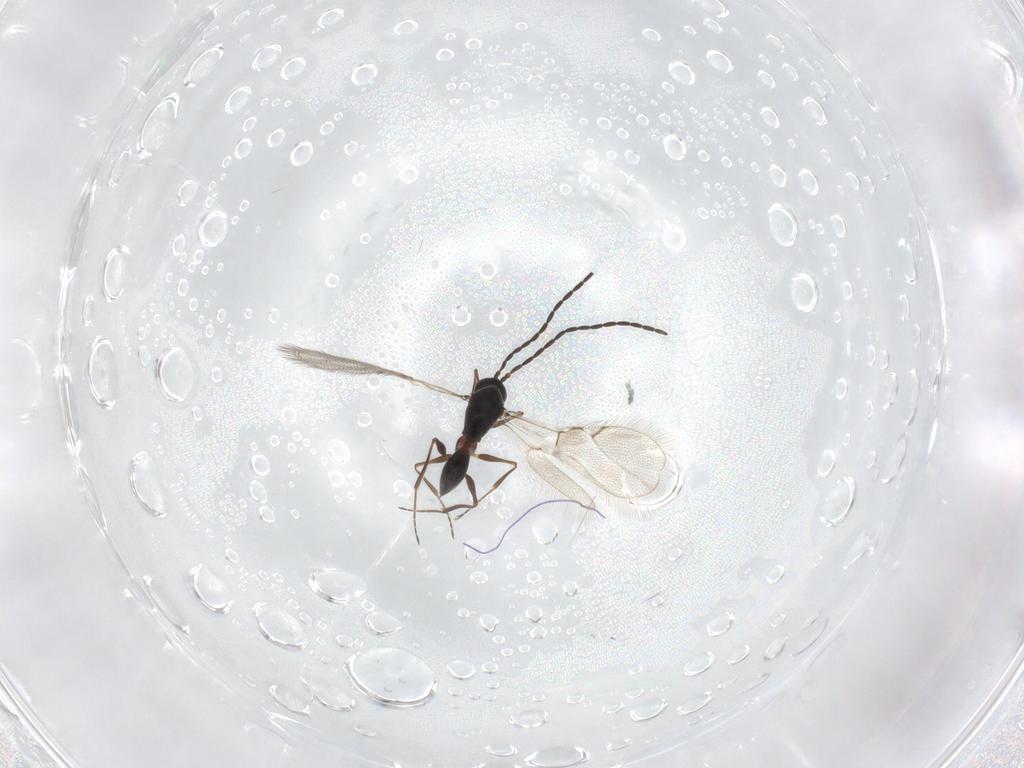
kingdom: Animalia
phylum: Arthropoda
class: Insecta
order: Hymenoptera
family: Figitidae
